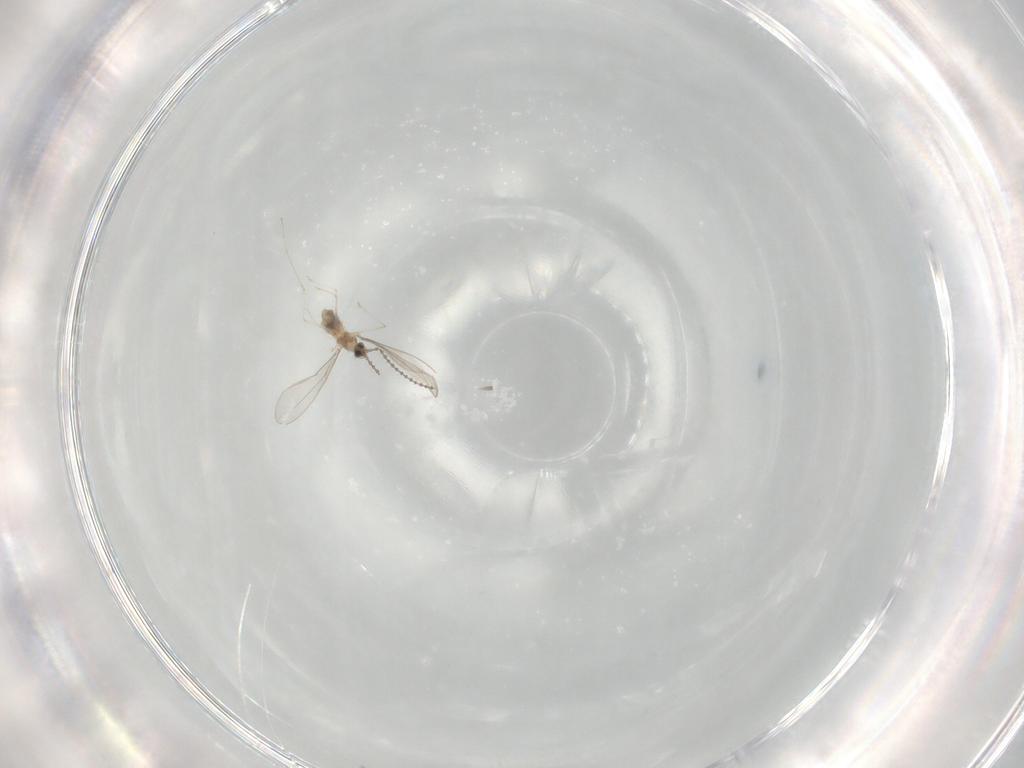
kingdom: Animalia
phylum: Arthropoda
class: Insecta
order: Diptera
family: Cecidomyiidae
